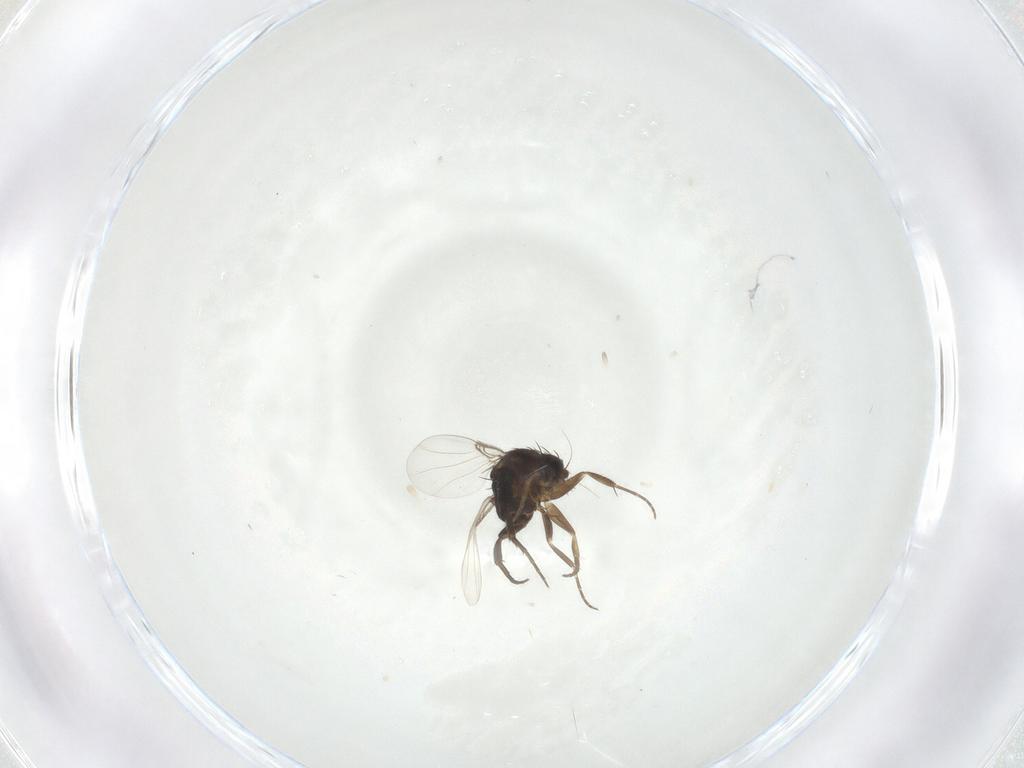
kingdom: Animalia
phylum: Arthropoda
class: Insecta
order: Diptera
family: Phoridae
